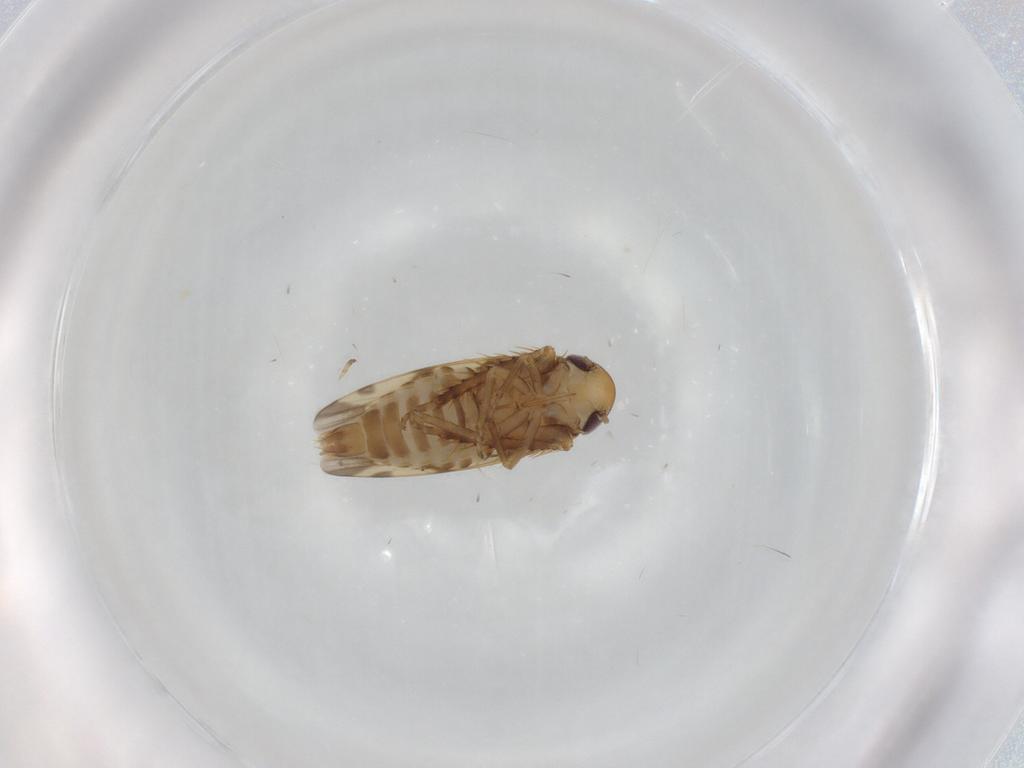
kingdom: Animalia
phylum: Arthropoda
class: Insecta
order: Hemiptera
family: Cicadellidae
